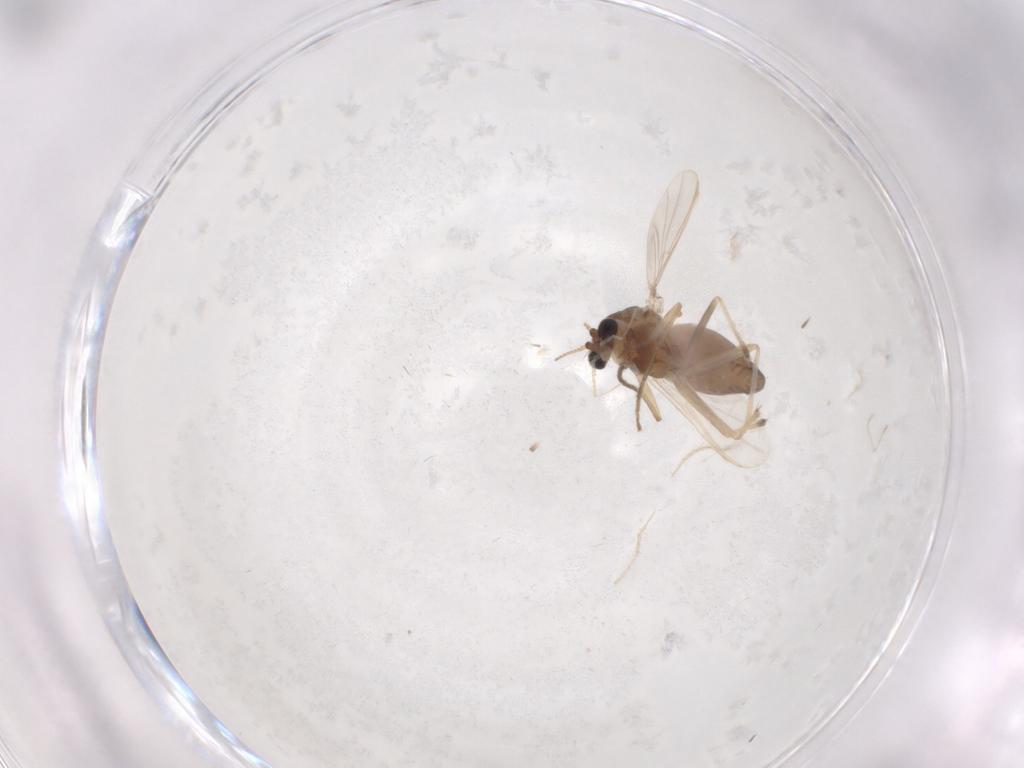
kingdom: Animalia
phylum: Arthropoda
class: Insecta
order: Diptera
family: Chironomidae
